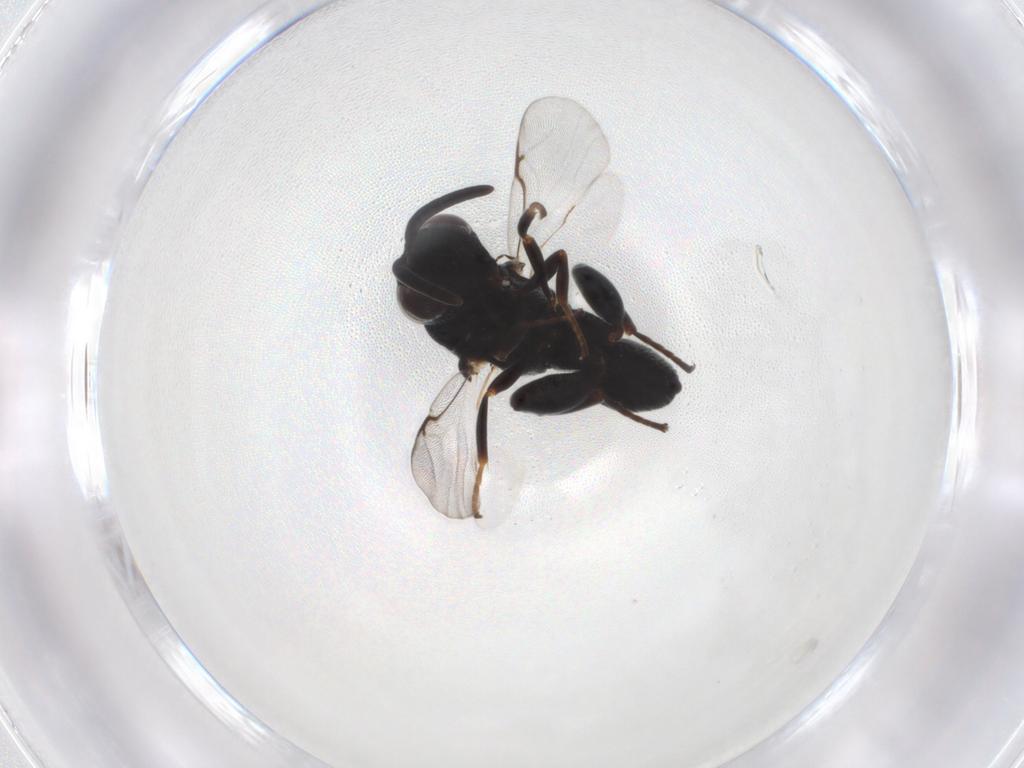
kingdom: Animalia
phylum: Arthropoda
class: Insecta
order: Hymenoptera
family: Chalcididae
